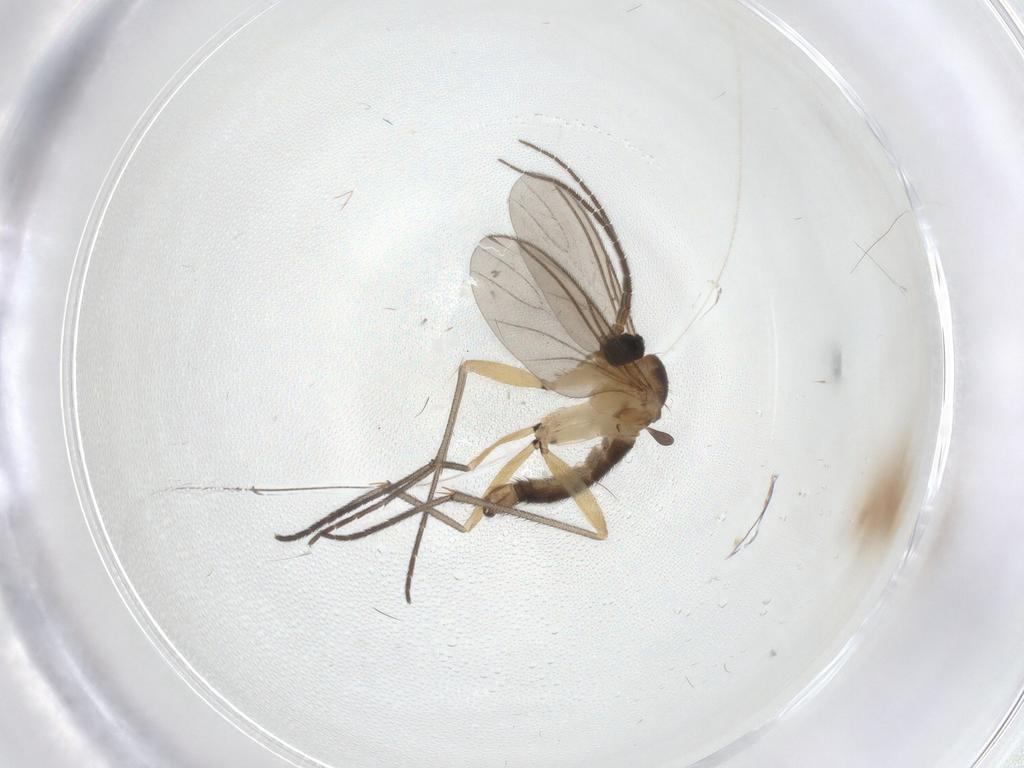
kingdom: Animalia
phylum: Arthropoda
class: Insecta
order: Diptera
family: Sciaridae
